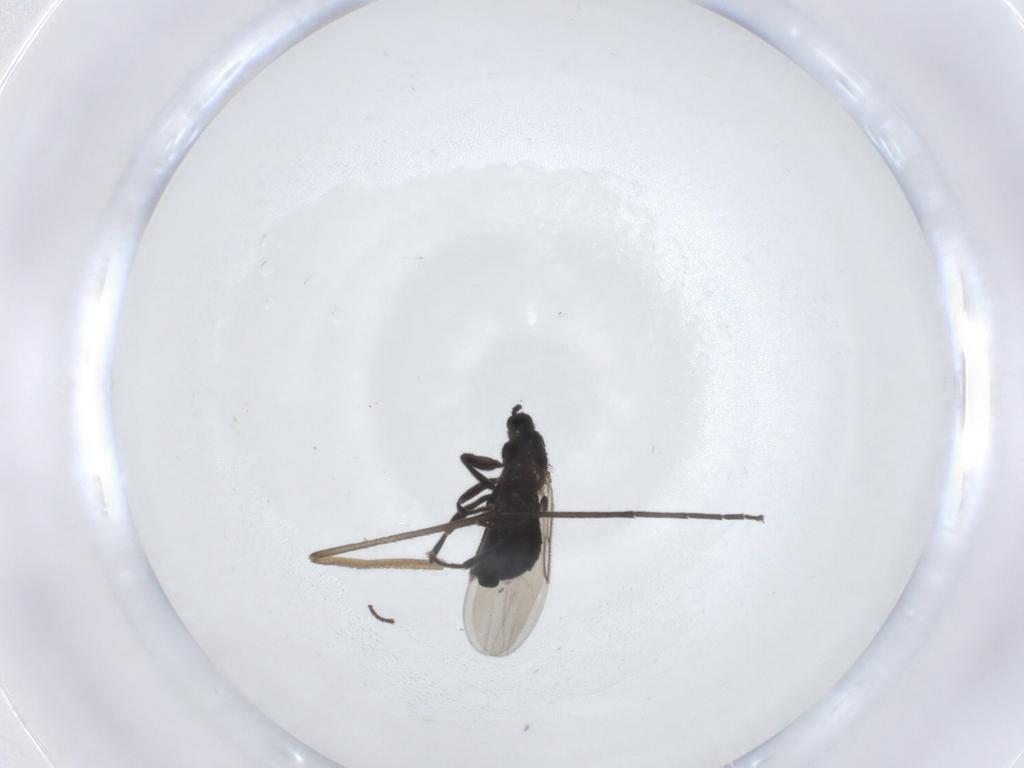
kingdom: Animalia
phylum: Arthropoda
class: Insecta
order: Diptera
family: Scatopsidae
